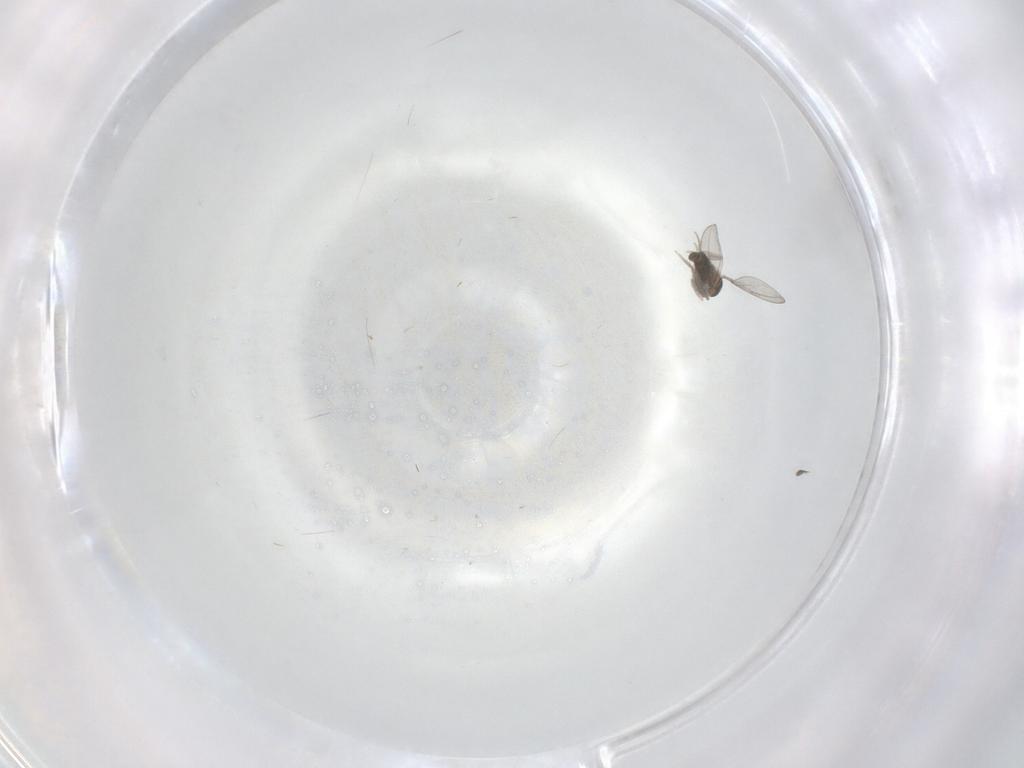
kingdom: Animalia
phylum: Arthropoda
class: Insecta
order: Diptera
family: Cecidomyiidae
